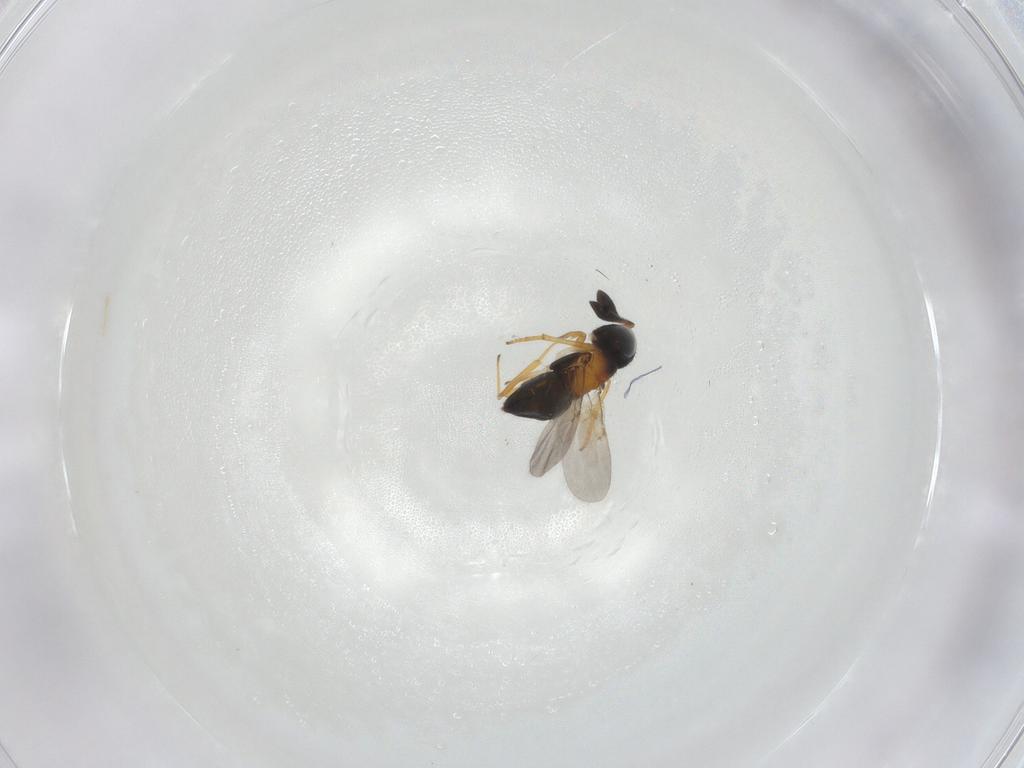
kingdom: Animalia
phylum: Arthropoda
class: Insecta
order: Hymenoptera
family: Encyrtidae
